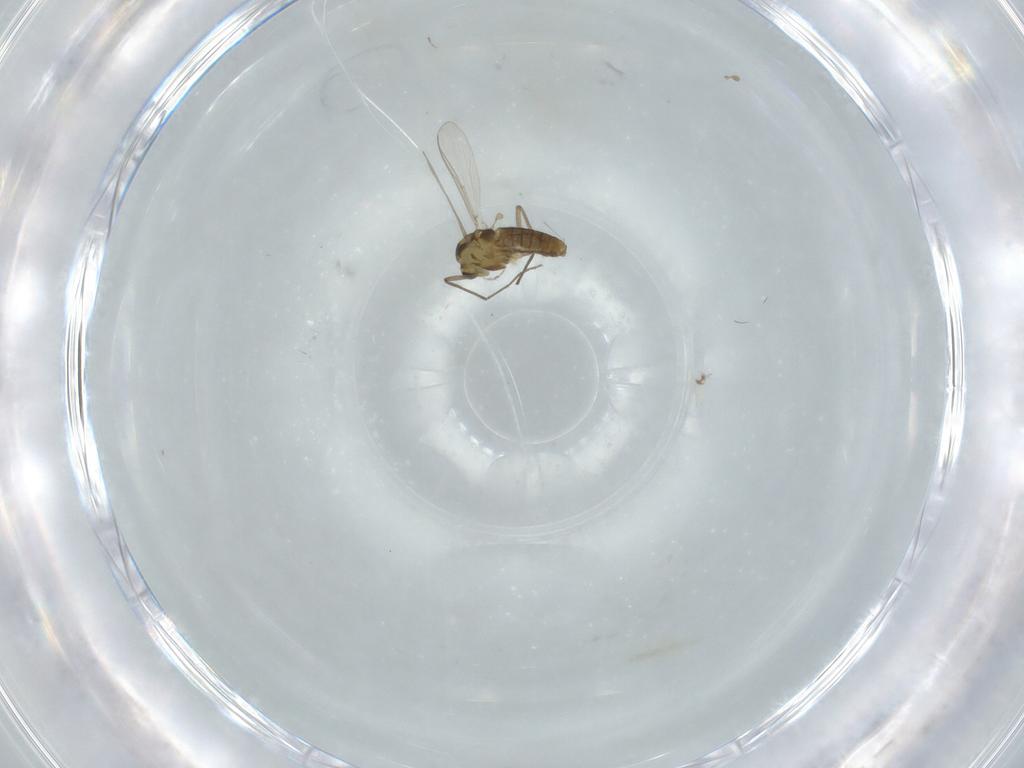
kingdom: Animalia
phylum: Arthropoda
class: Insecta
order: Diptera
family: Chironomidae
